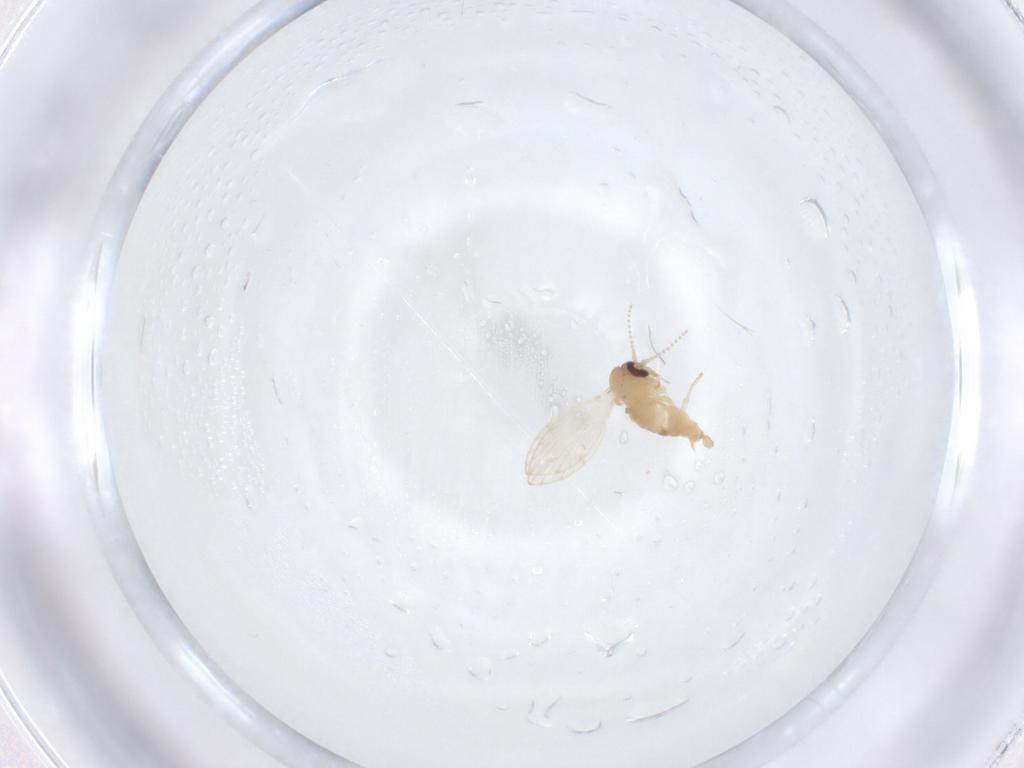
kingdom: Animalia
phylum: Arthropoda
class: Insecta
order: Diptera
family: Psychodidae
